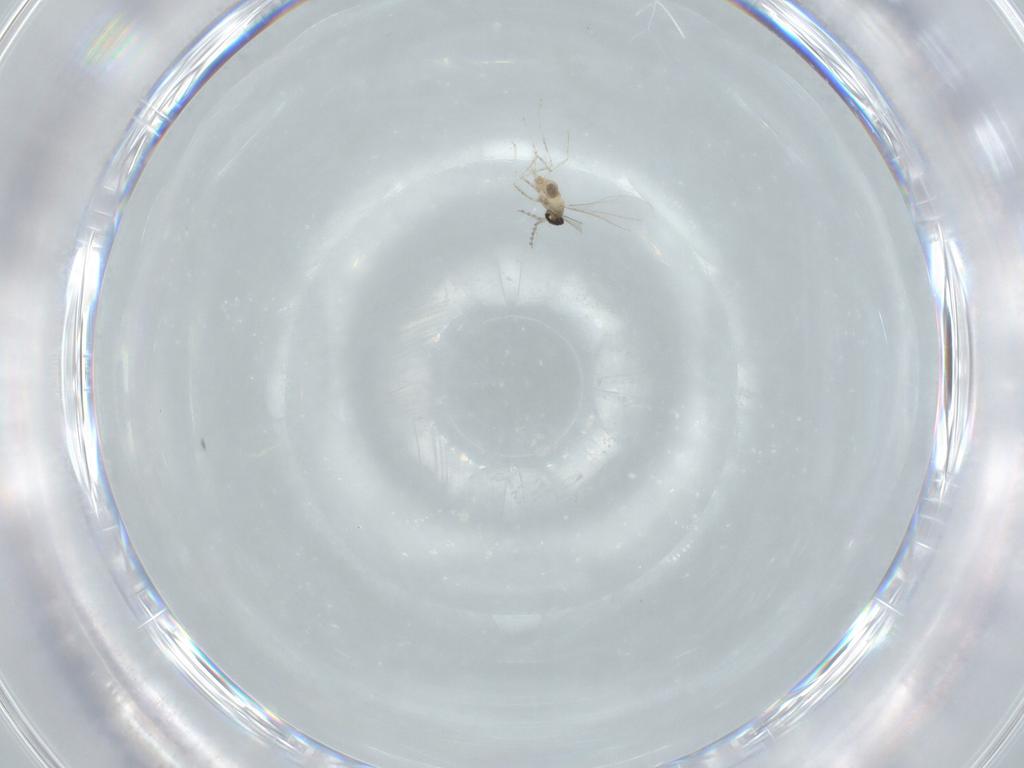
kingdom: Animalia
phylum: Arthropoda
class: Insecta
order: Diptera
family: Cecidomyiidae
